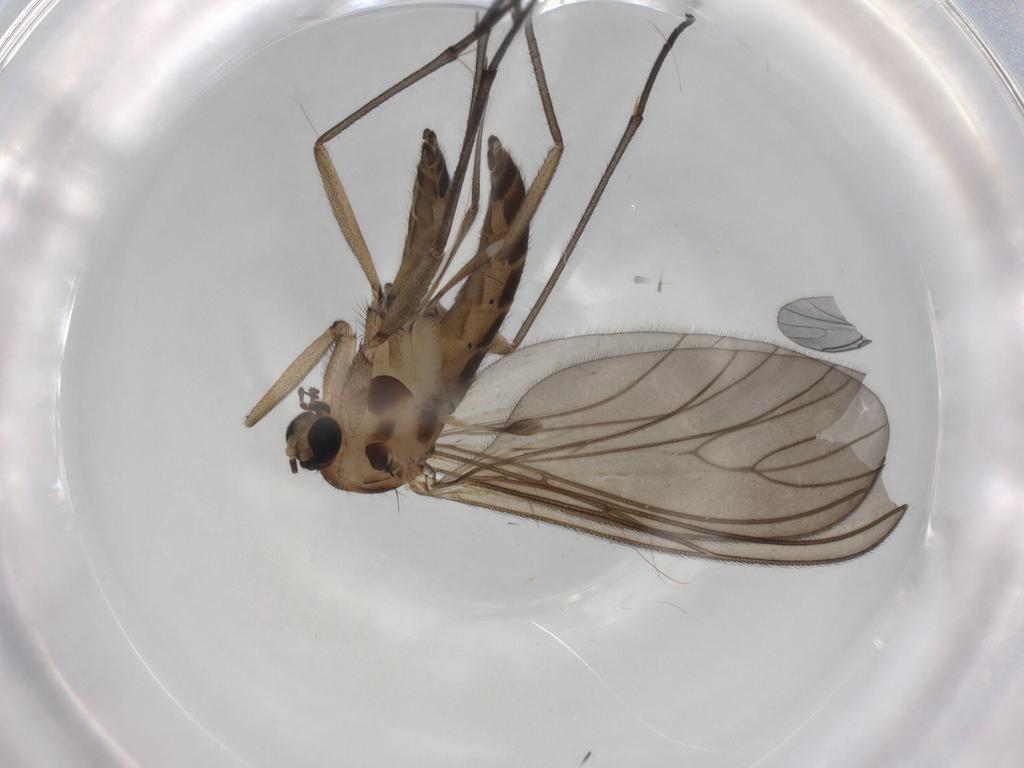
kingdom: Animalia
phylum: Arthropoda
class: Insecta
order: Diptera
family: Sciaridae
